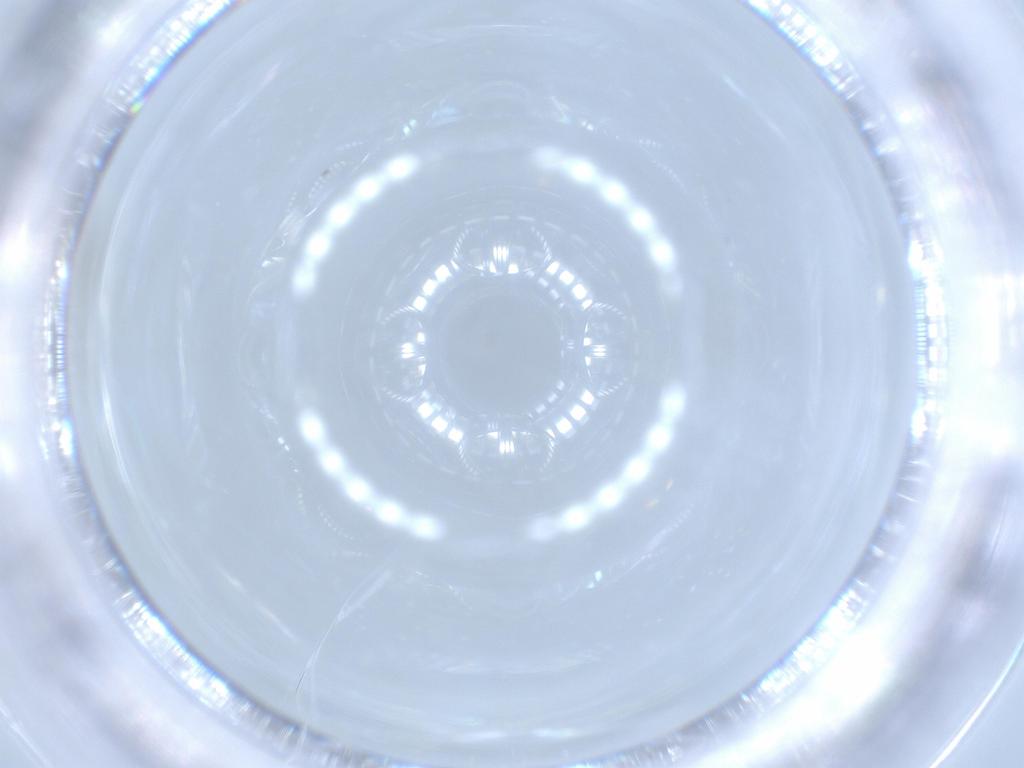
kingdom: Animalia
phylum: Arthropoda
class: Insecta
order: Diptera
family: Chironomidae
